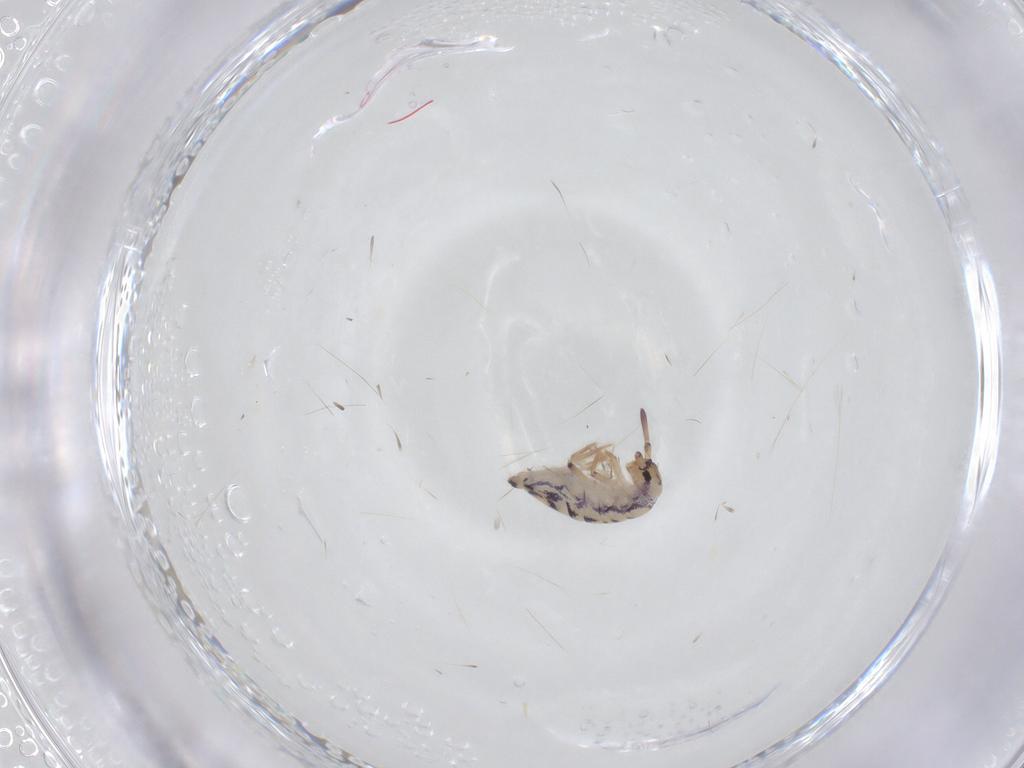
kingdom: Animalia
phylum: Arthropoda
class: Collembola
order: Entomobryomorpha
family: Entomobryidae
